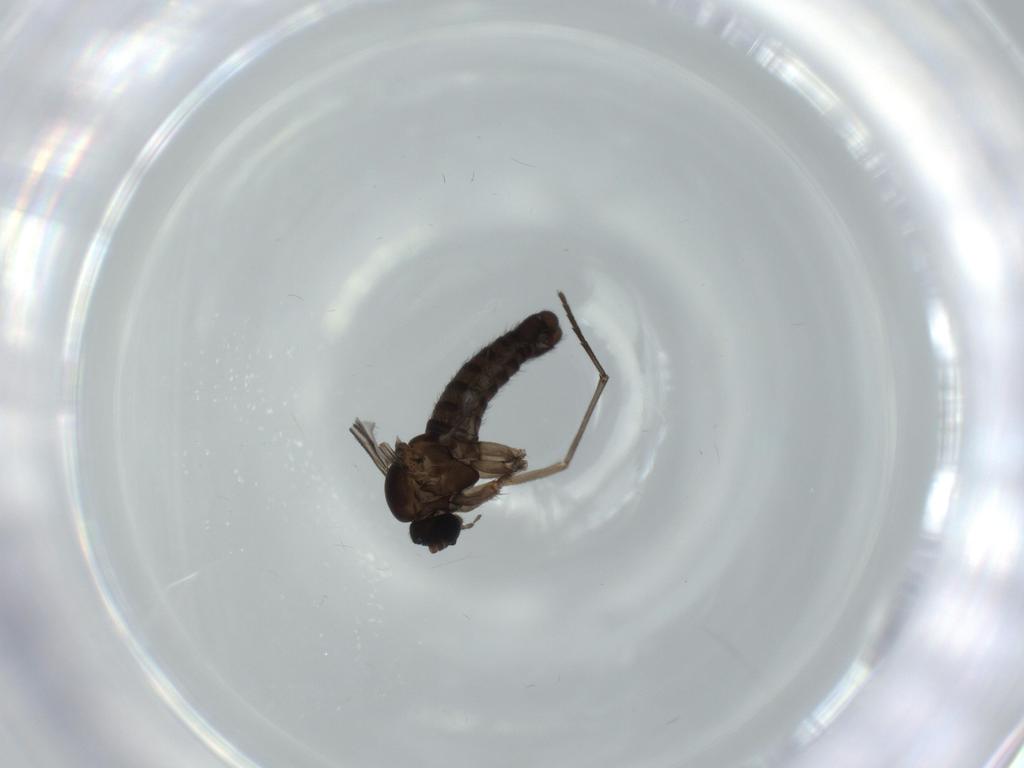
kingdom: Animalia
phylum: Arthropoda
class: Insecta
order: Diptera
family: Sciaridae
